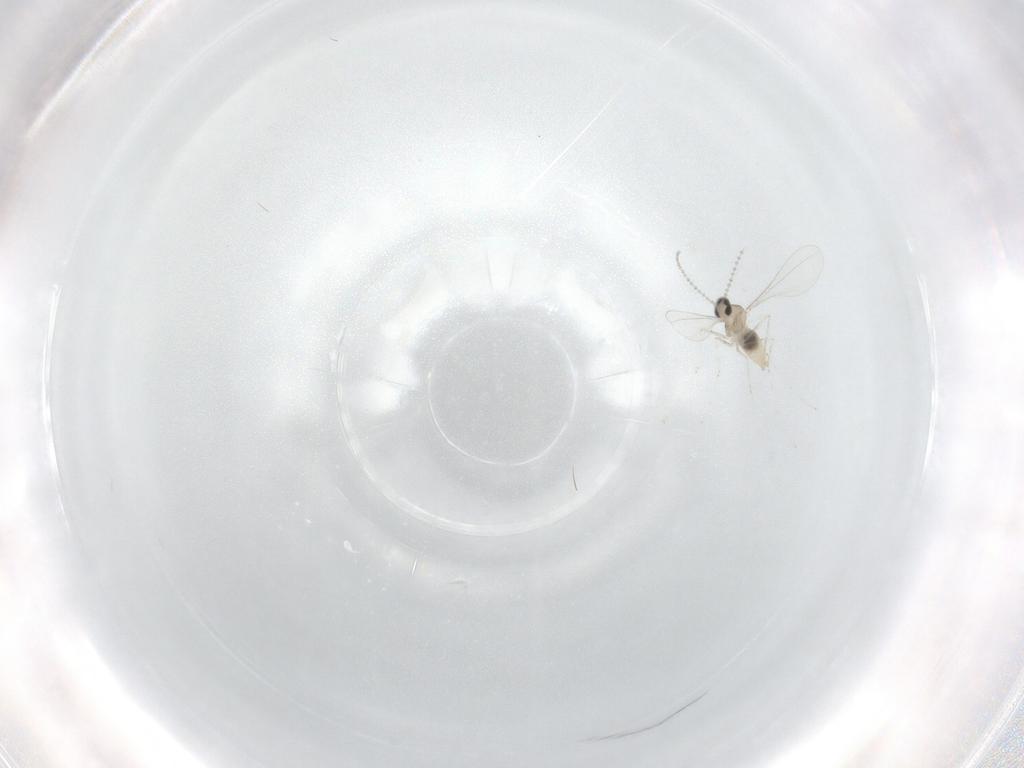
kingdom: Animalia
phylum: Arthropoda
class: Insecta
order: Diptera
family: Cecidomyiidae
